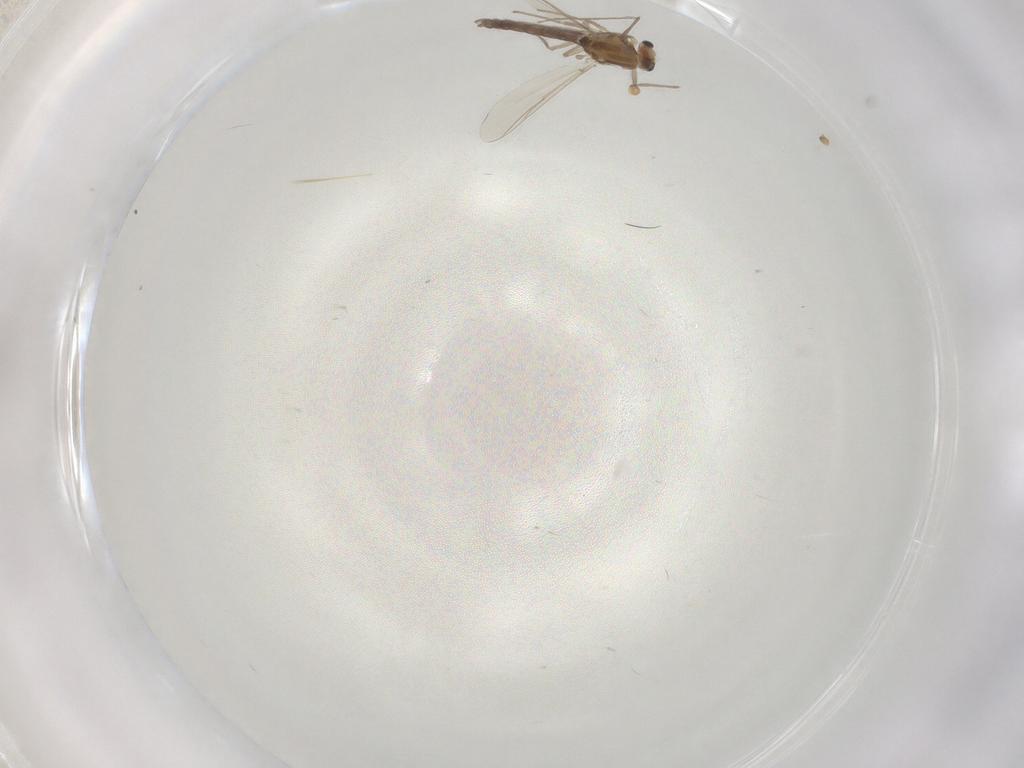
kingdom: Animalia
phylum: Arthropoda
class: Insecta
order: Diptera
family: Chironomidae
